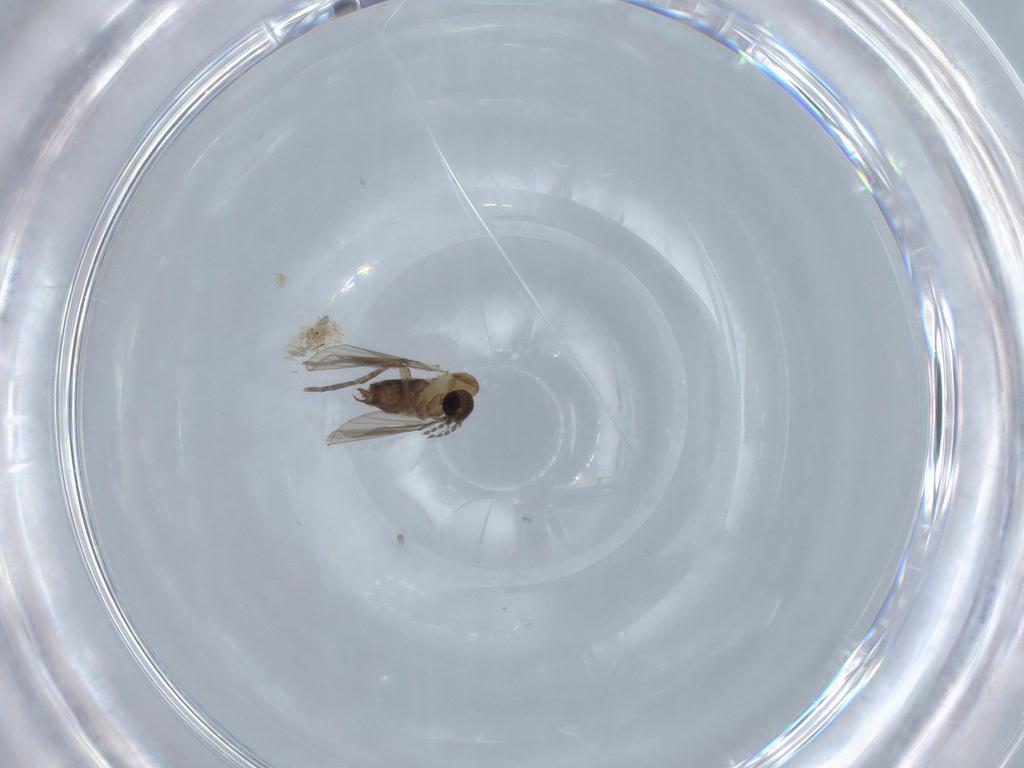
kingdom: Animalia
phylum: Arthropoda
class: Insecta
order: Diptera
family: Psychodidae
